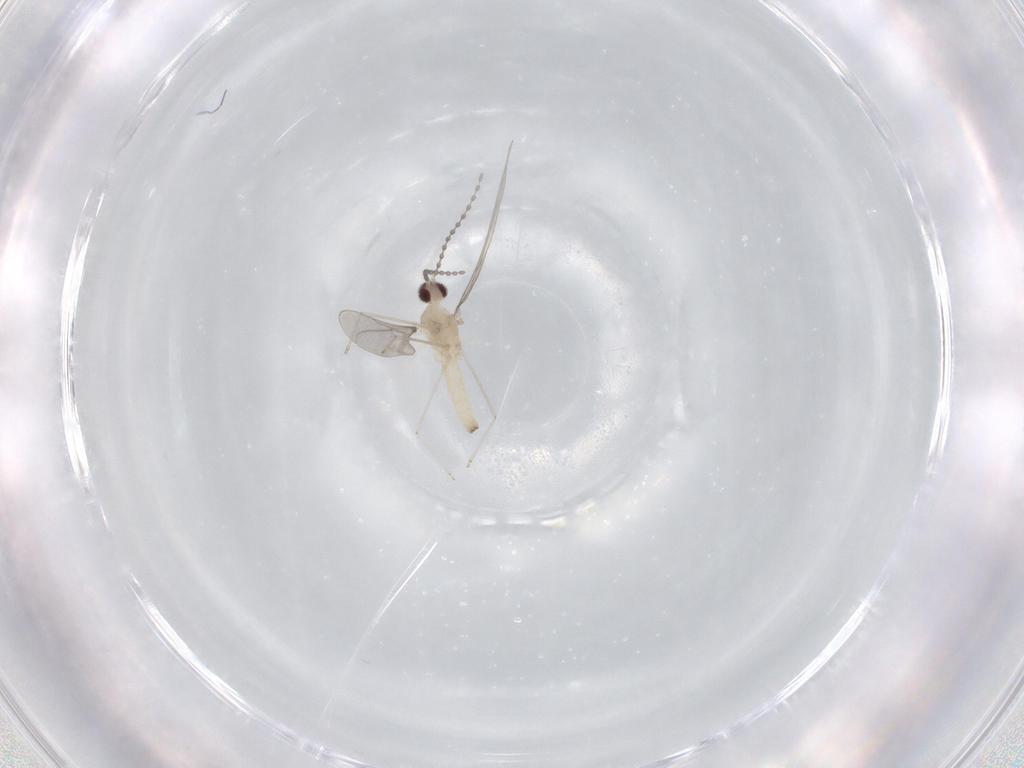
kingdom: Animalia
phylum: Arthropoda
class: Insecta
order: Diptera
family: Cecidomyiidae
